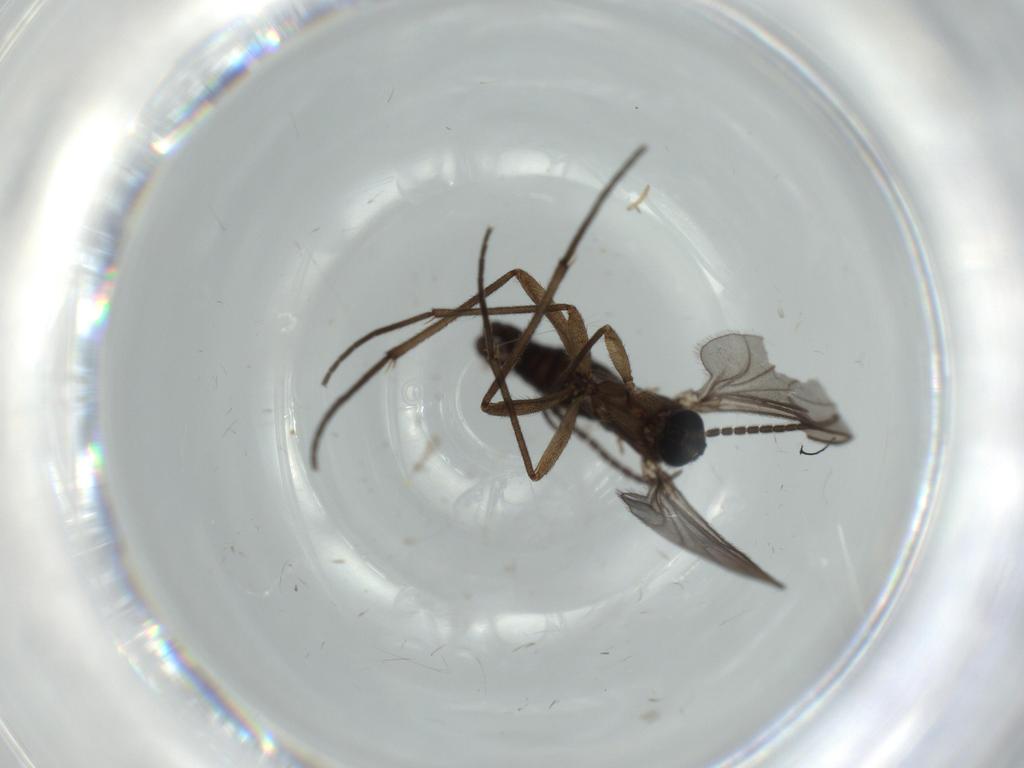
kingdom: Animalia
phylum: Arthropoda
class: Insecta
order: Diptera
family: Sciaridae
